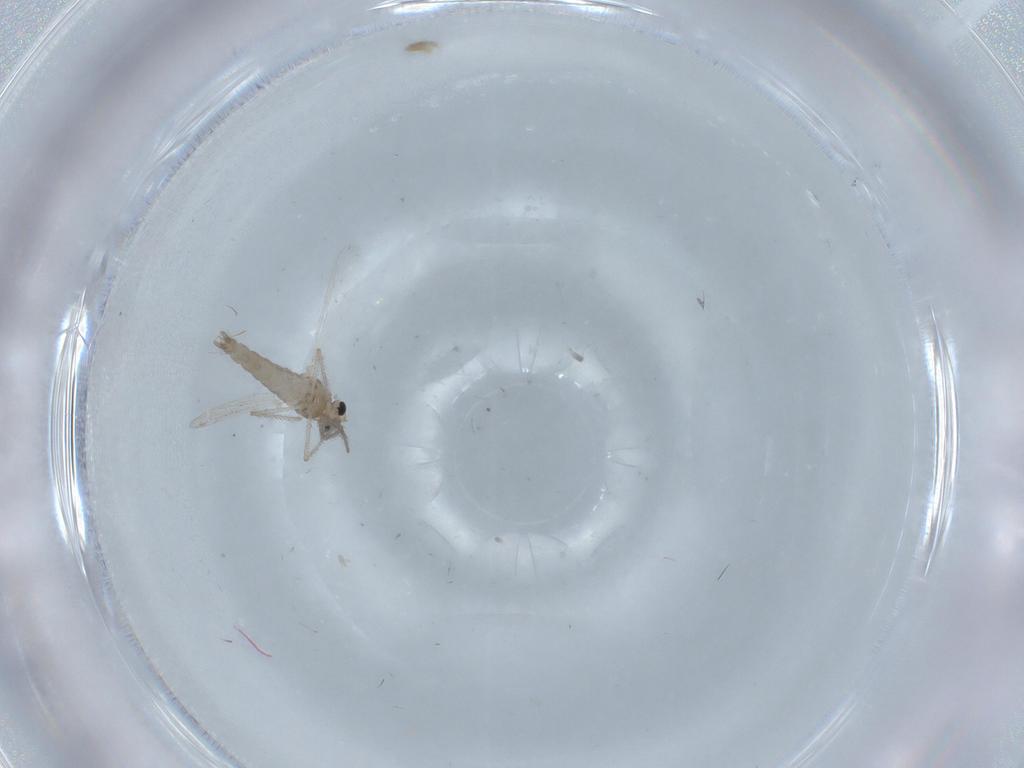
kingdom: Animalia
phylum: Arthropoda
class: Insecta
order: Diptera
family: Chironomidae
